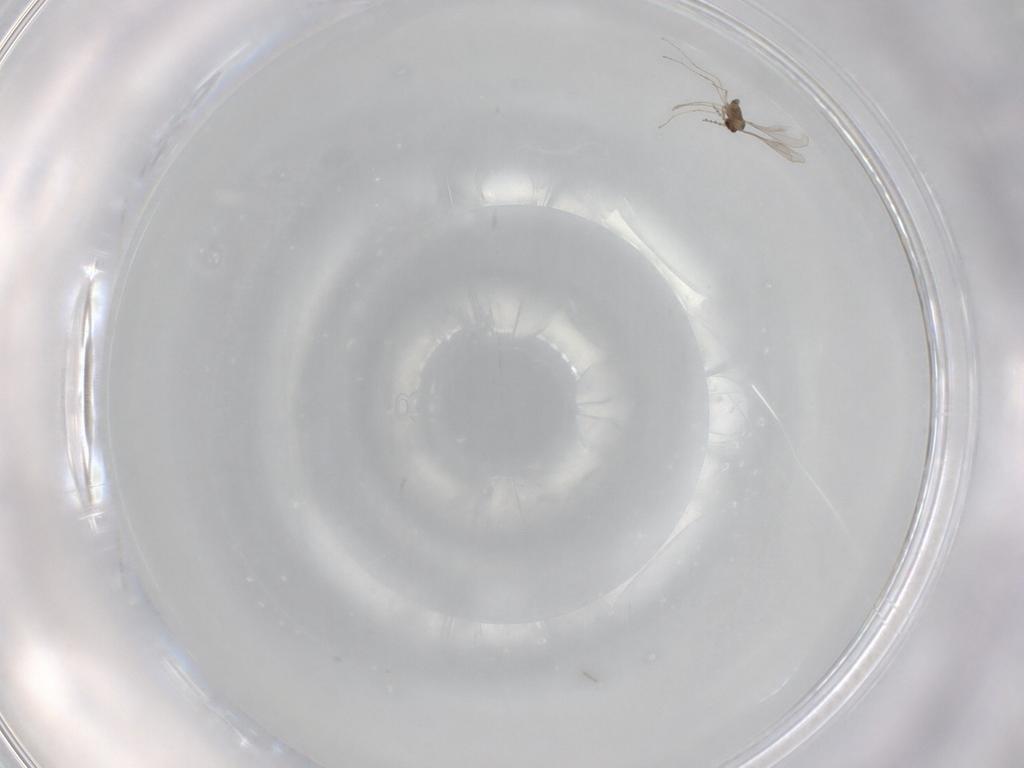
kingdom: Animalia
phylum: Arthropoda
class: Insecta
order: Diptera
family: Cecidomyiidae
